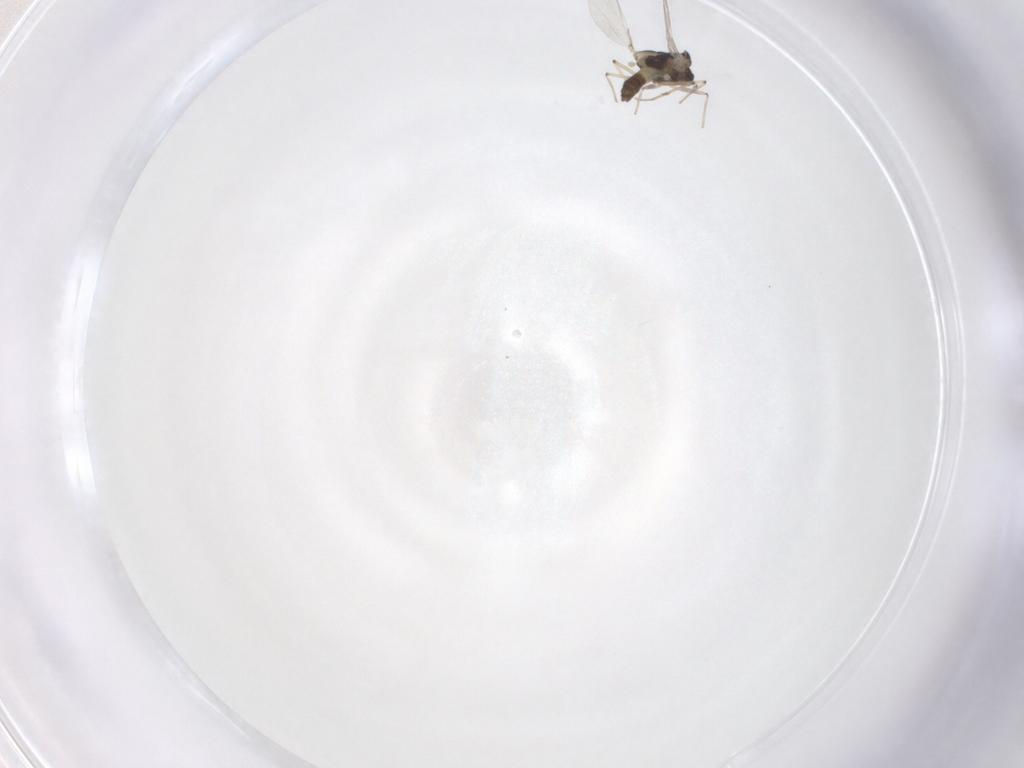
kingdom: Animalia
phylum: Arthropoda
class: Insecta
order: Diptera
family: Chironomidae
